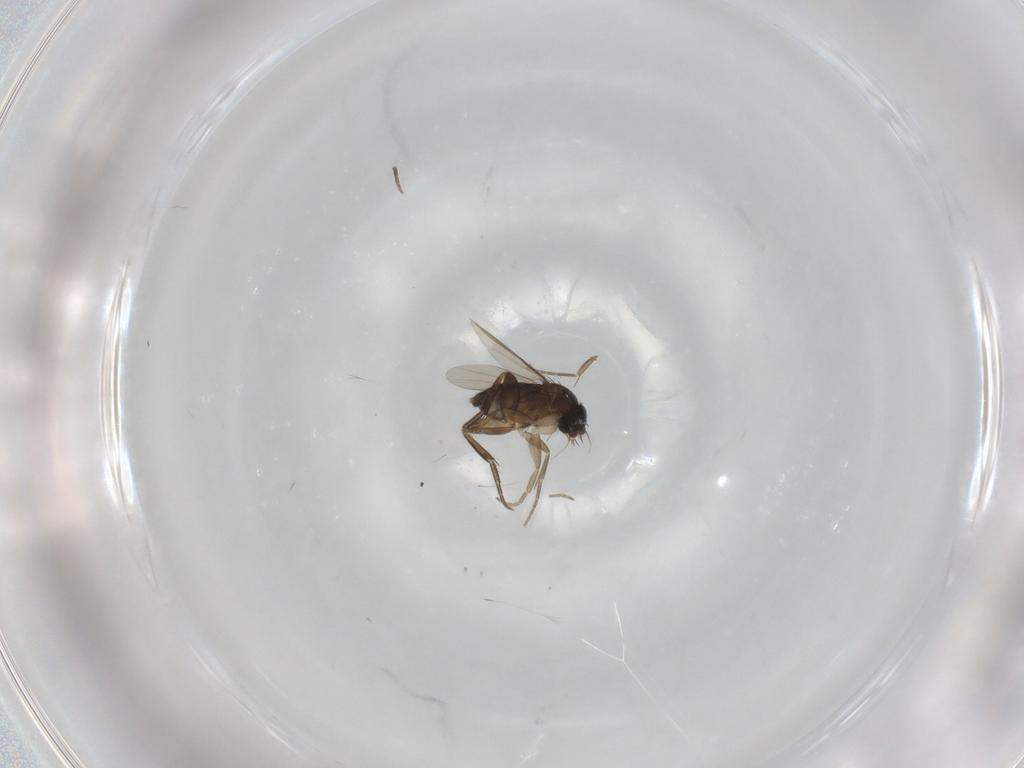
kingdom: Animalia
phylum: Arthropoda
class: Insecta
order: Diptera
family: Phoridae
